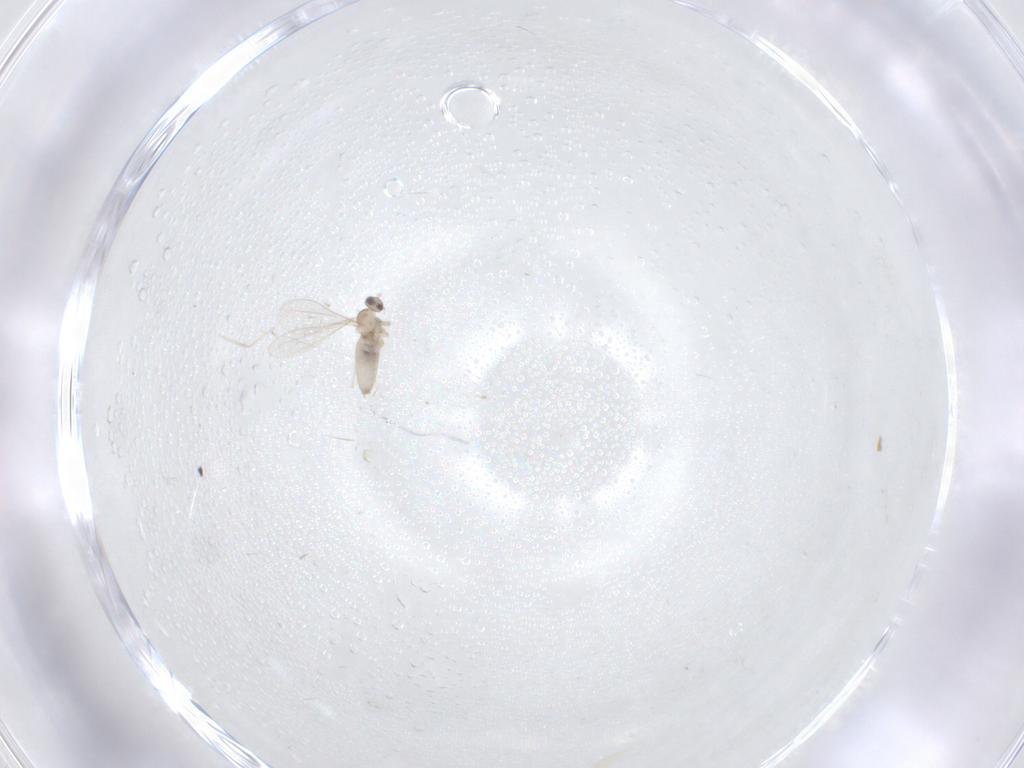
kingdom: Animalia
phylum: Arthropoda
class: Insecta
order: Diptera
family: Cecidomyiidae
